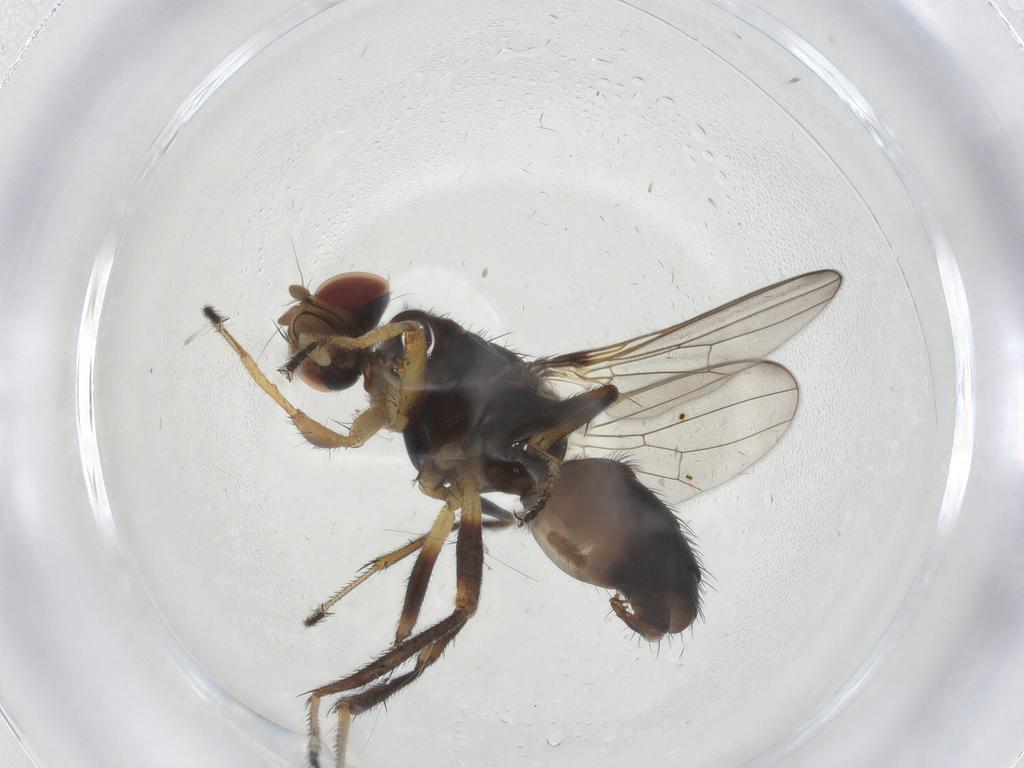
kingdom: Animalia
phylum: Arthropoda
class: Insecta
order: Diptera
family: Sepsidae
